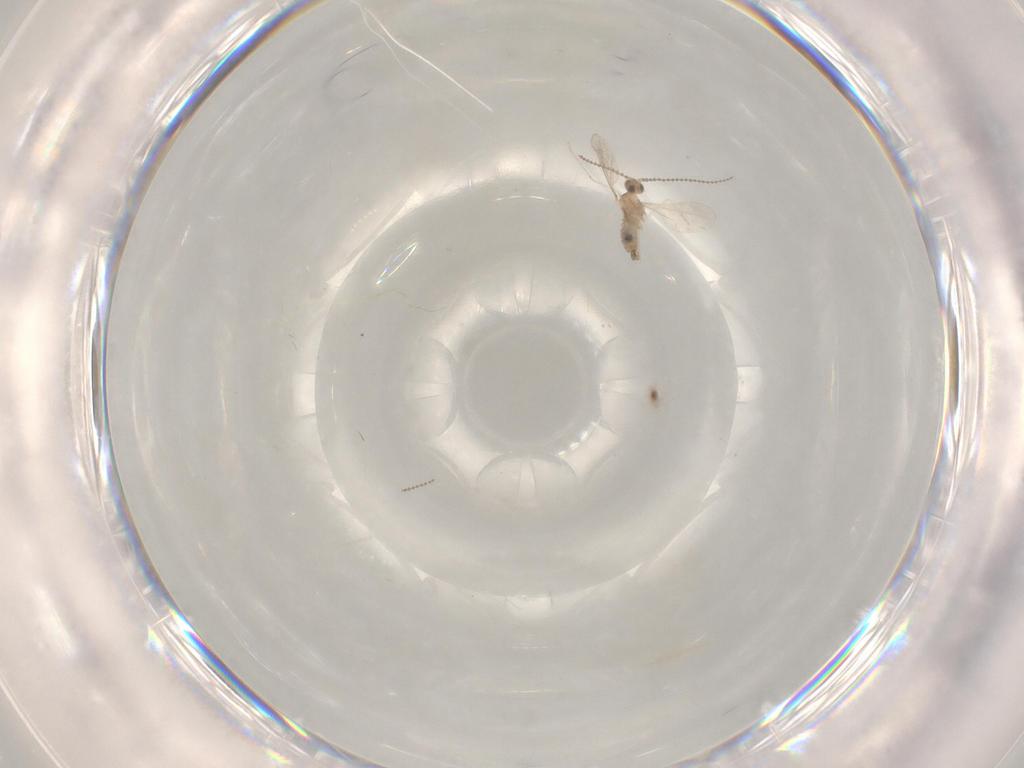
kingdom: Animalia
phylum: Arthropoda
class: Insecta
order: Diptera
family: Cecidomyiidae
